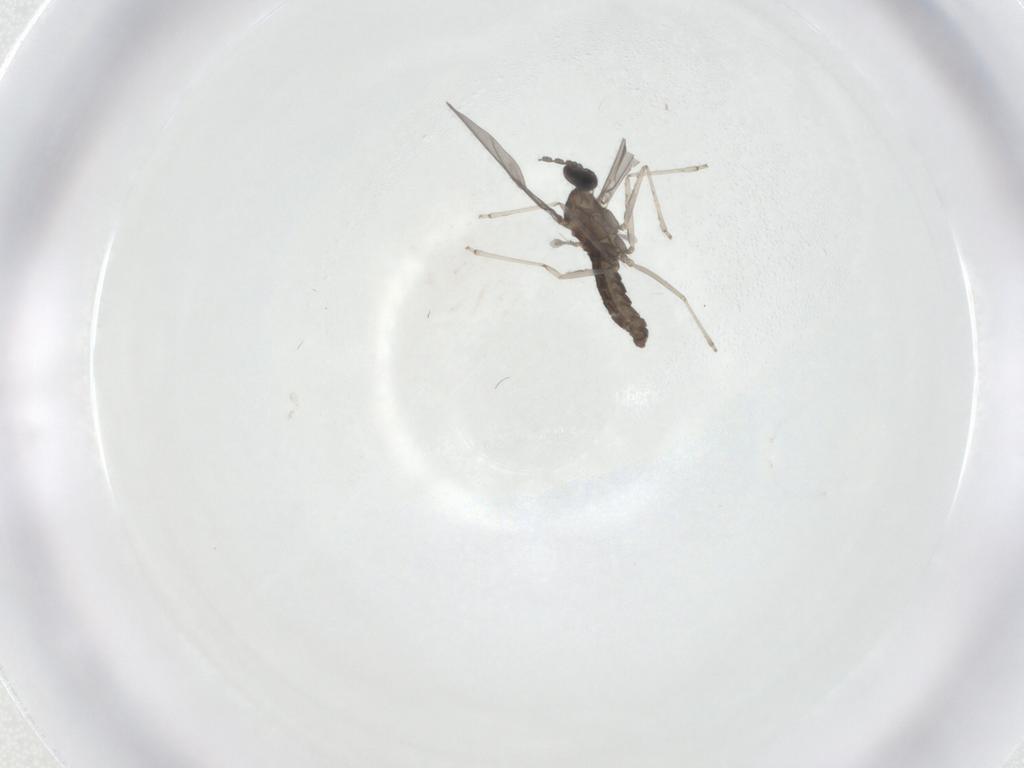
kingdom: Animalia
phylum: Arthropoda
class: Insecta
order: Diptera
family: Cecidomyiidae
